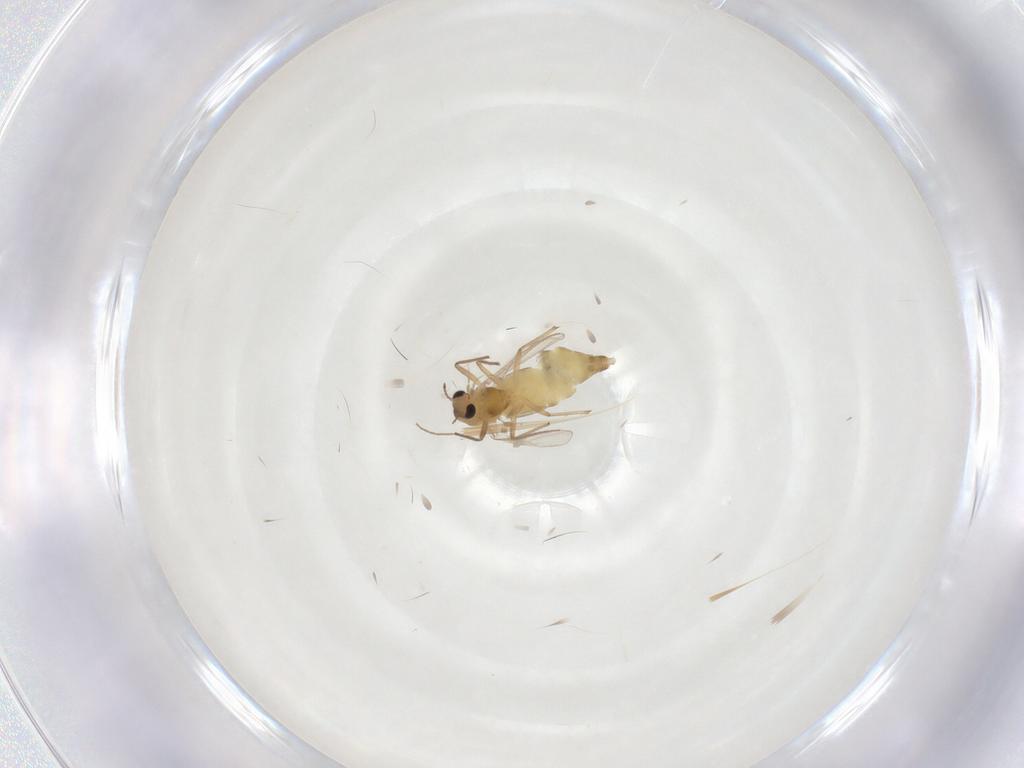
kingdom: Animalia
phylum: Arthropoda
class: Insecta
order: Diptera
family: Chironomidae
